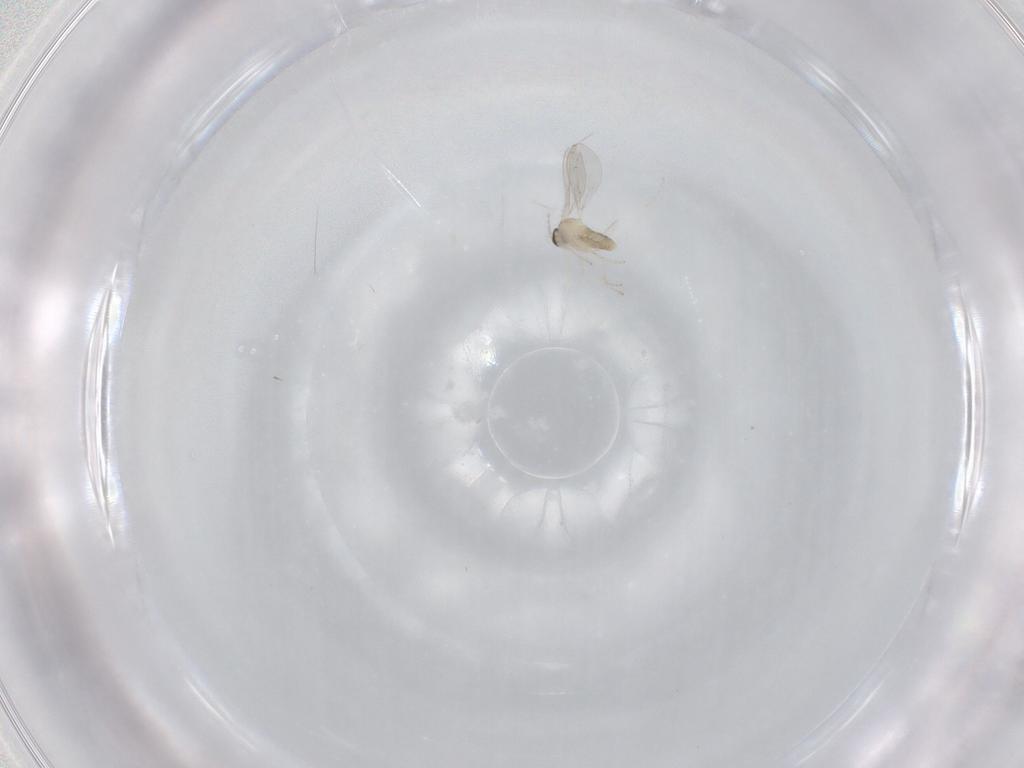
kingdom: Animalia
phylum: Arthropoda
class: Insecta
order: Diptera
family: Cecidomyiidae
